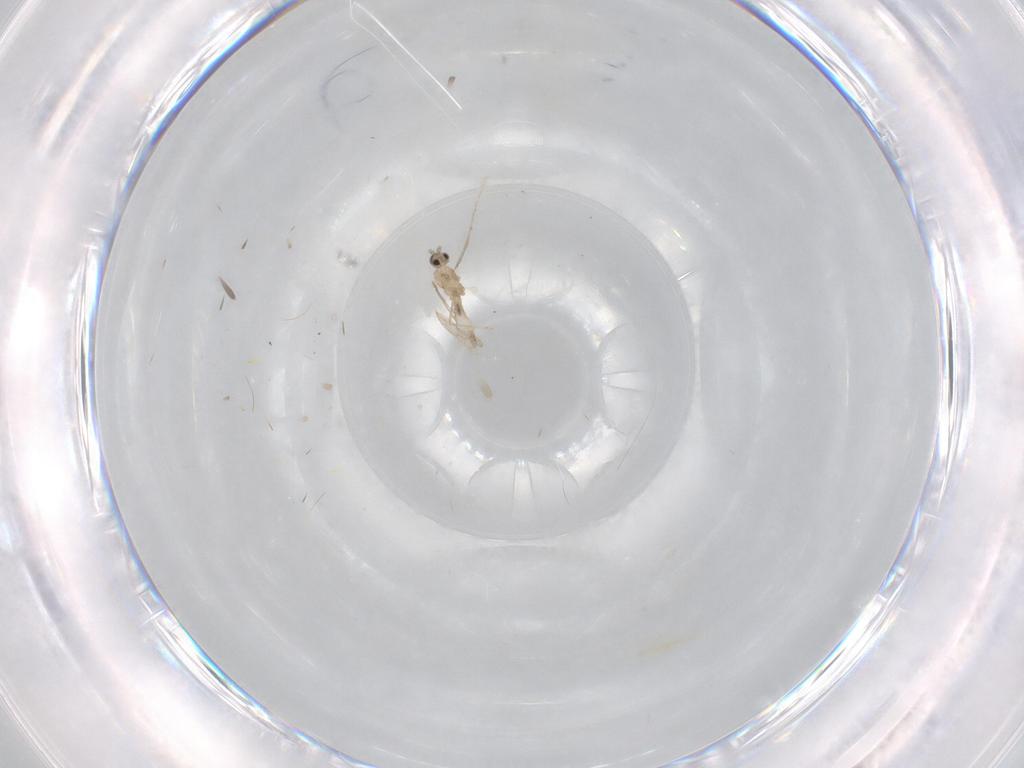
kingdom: Animalia
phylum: Arthropoda
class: Insecta
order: Diptera
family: Cecidomyiidae
